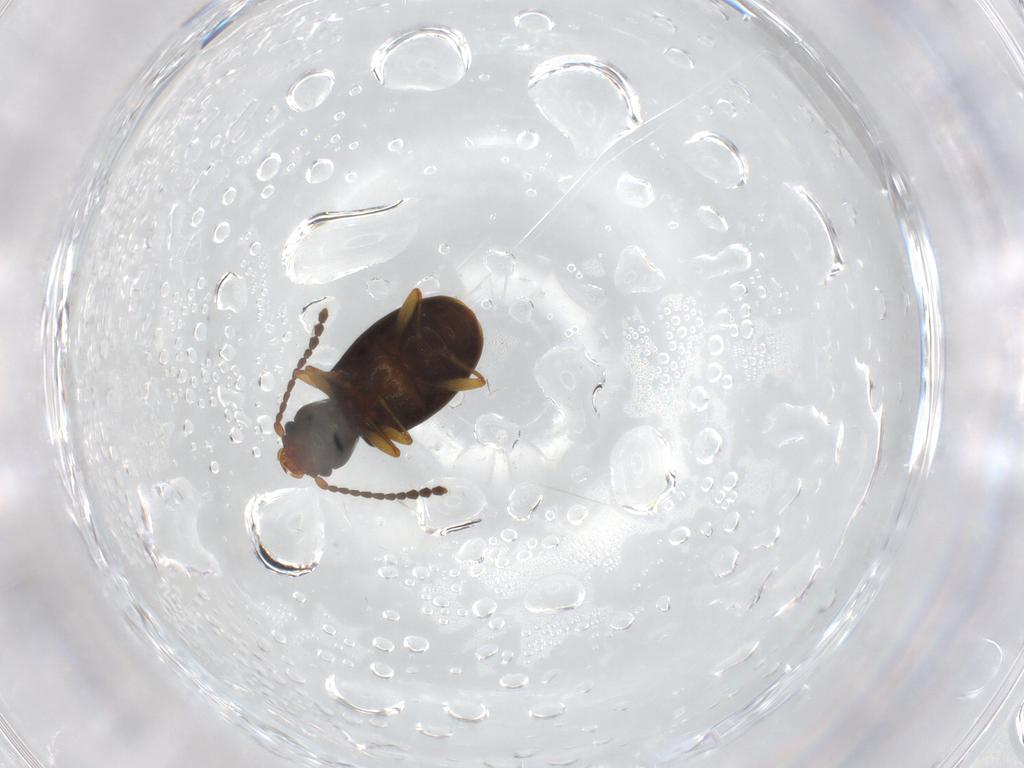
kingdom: Animalia
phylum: Arthropoda
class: Insecta
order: Coleoptera
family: Laemophloeidae
